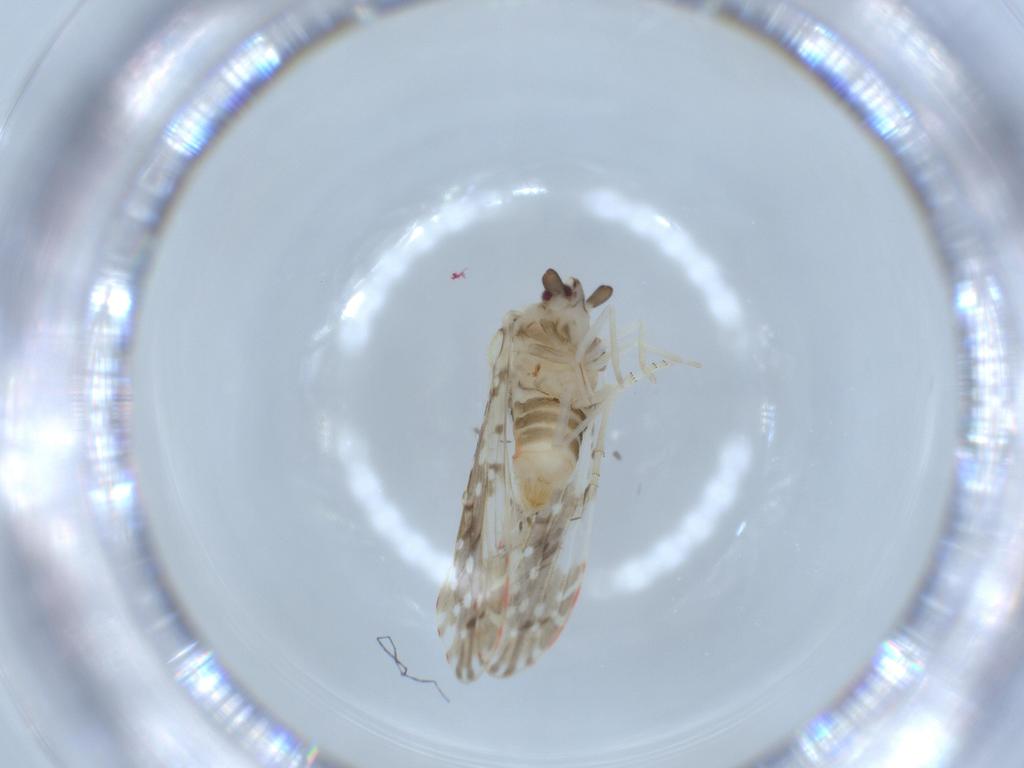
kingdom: Animalia
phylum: Arthropoda
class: Insecta
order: Hemiptera
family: Derbidae
